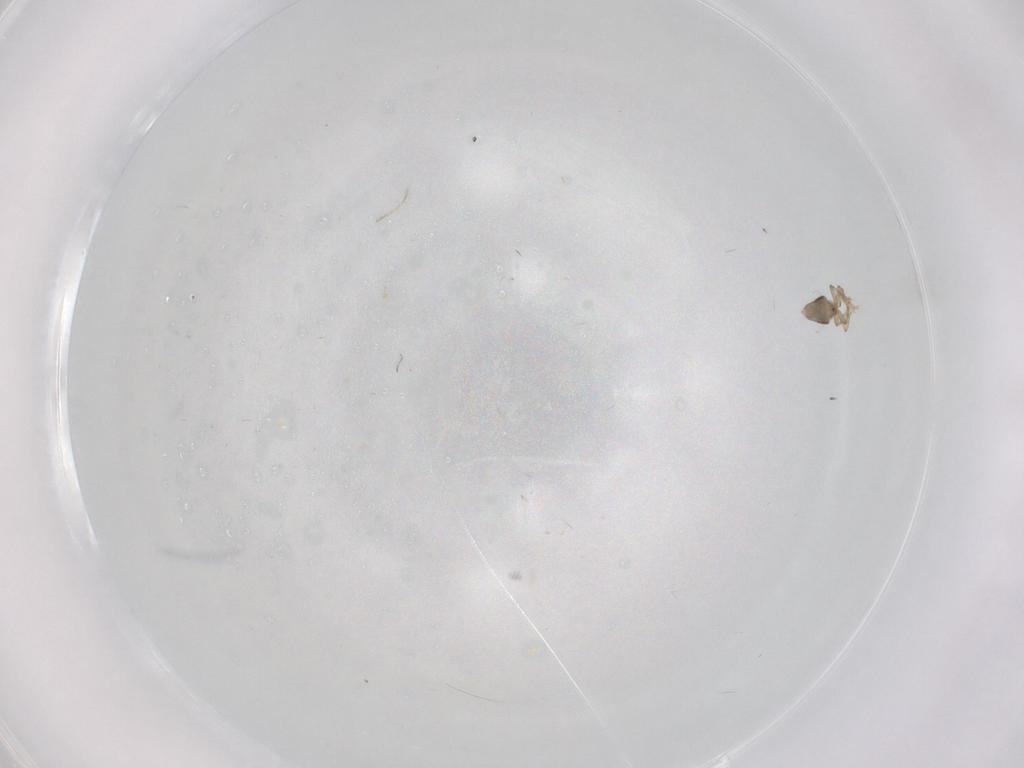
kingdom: Animalia
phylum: Arthropoda
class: Insecta
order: Diptera
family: Phoridae
